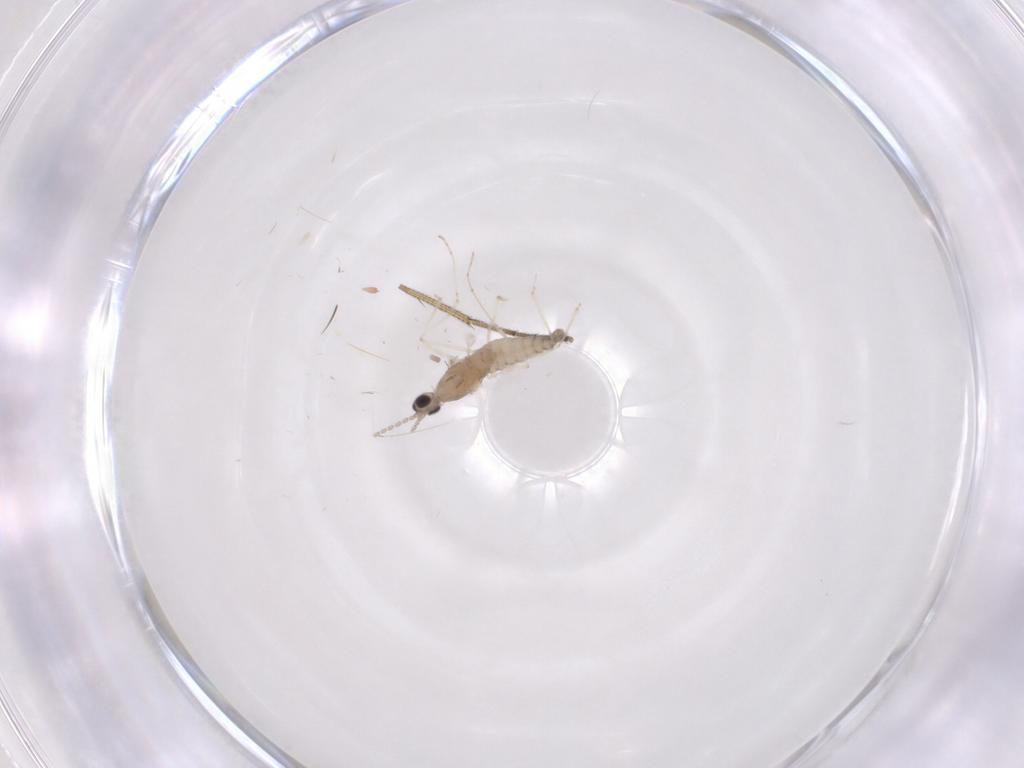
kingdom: Animalia
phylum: Arthropoda
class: Insecta
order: Diptera
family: Cecidomyiidae
